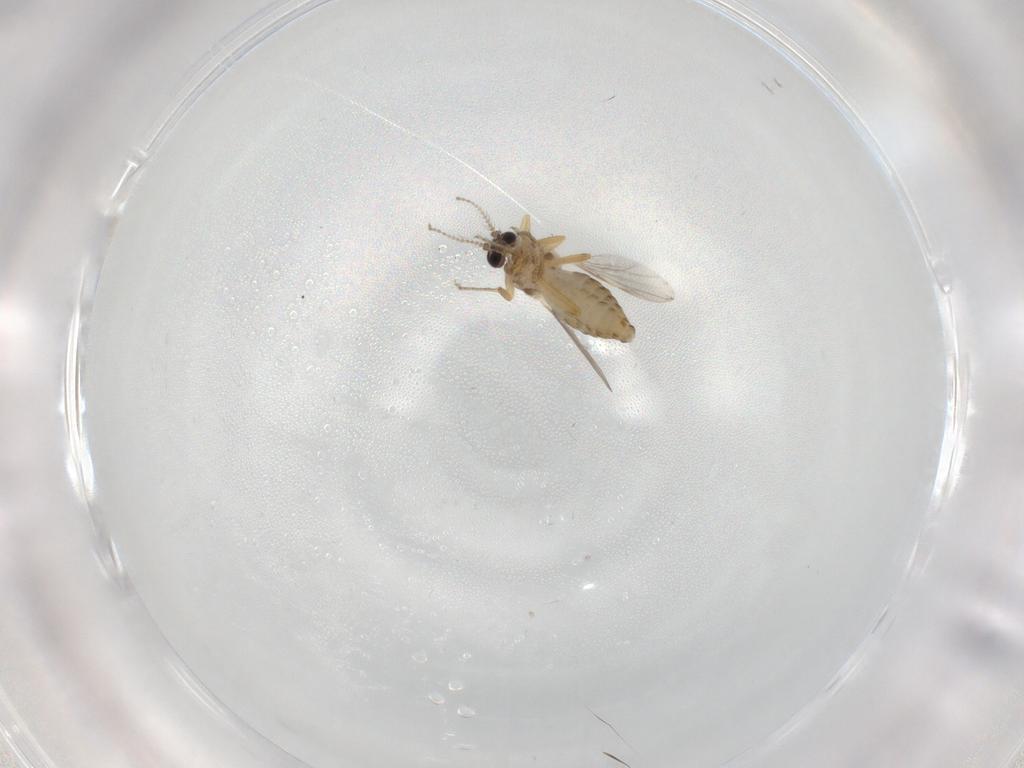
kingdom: Animalia
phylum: Arthropoda
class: Insecta
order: Diptera
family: Ceratopogonidae
